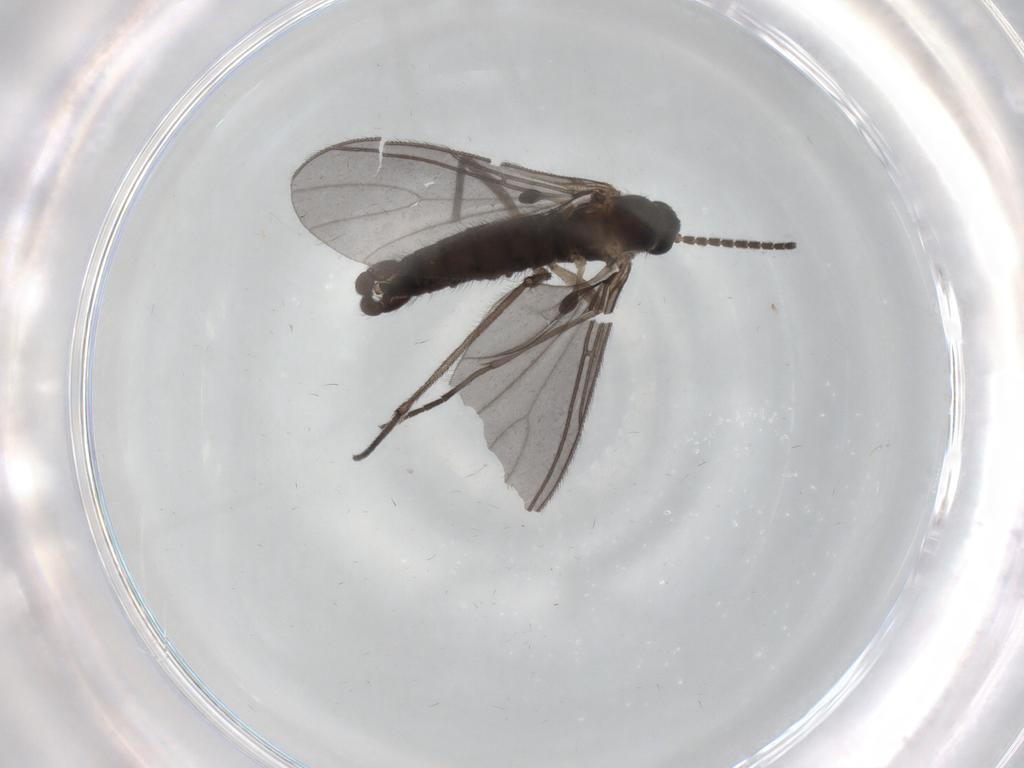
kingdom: Animalia
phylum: Arthropoda
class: Insecta
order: Diptera
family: Sciaridae
